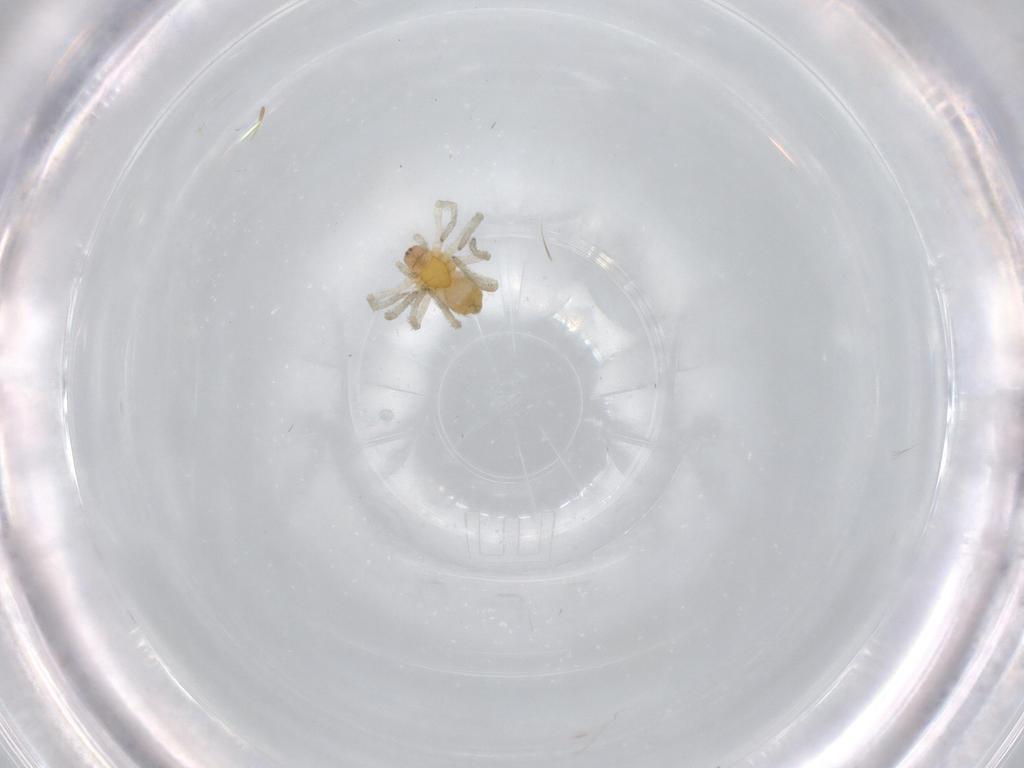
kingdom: Animalia
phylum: Arthropoda
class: Arachnida
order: Araneae
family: Dictynidae
